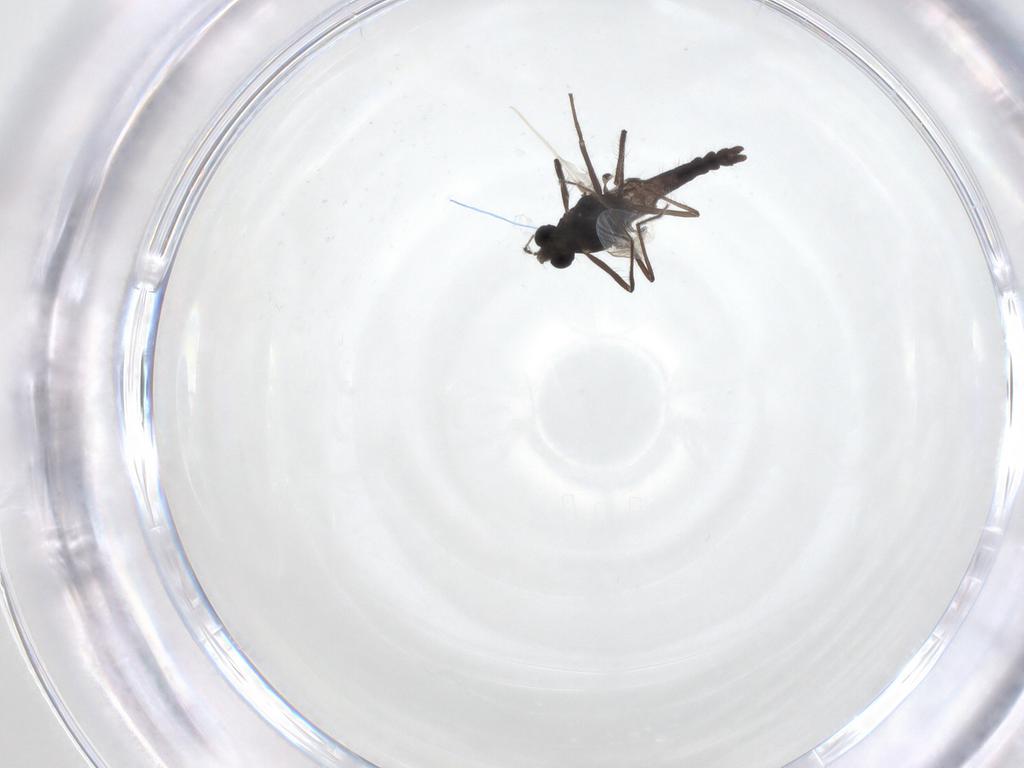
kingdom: Animalia
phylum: Arthropoda
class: Insecta
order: Diptera
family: Chironomidae
